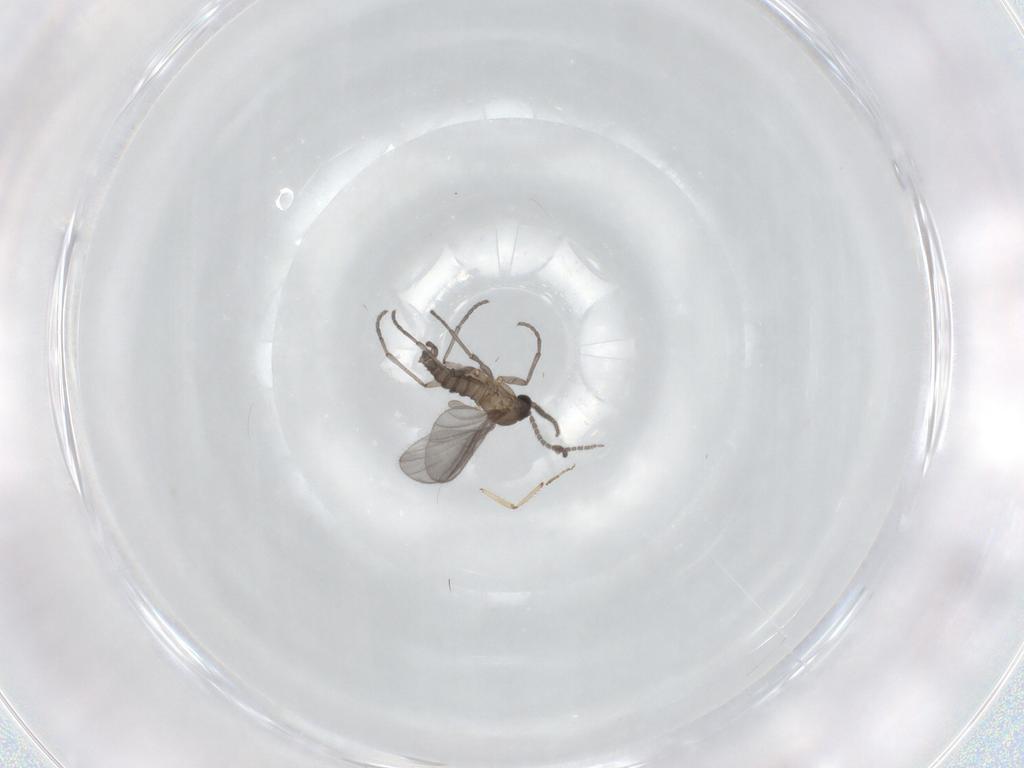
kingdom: Animalia
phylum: Arthropoda
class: Insecta
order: Diptera
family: Sciaridae
